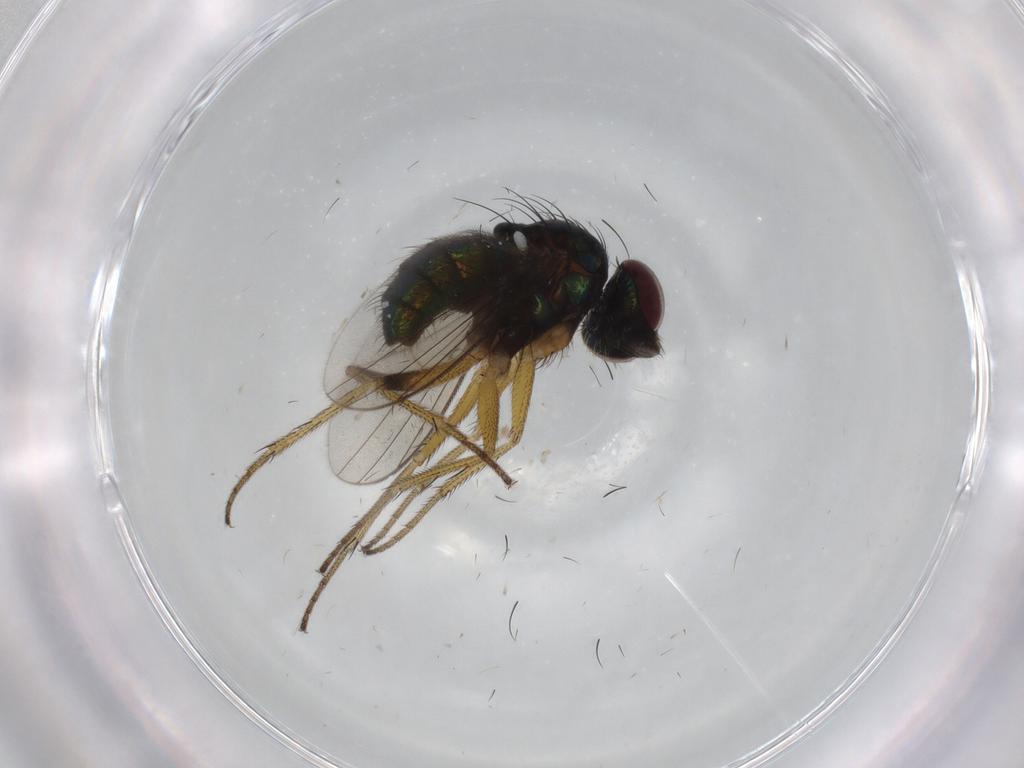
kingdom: Animalia
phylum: Arthropoda
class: Insecta
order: Diptera
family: Dolichopodidae
